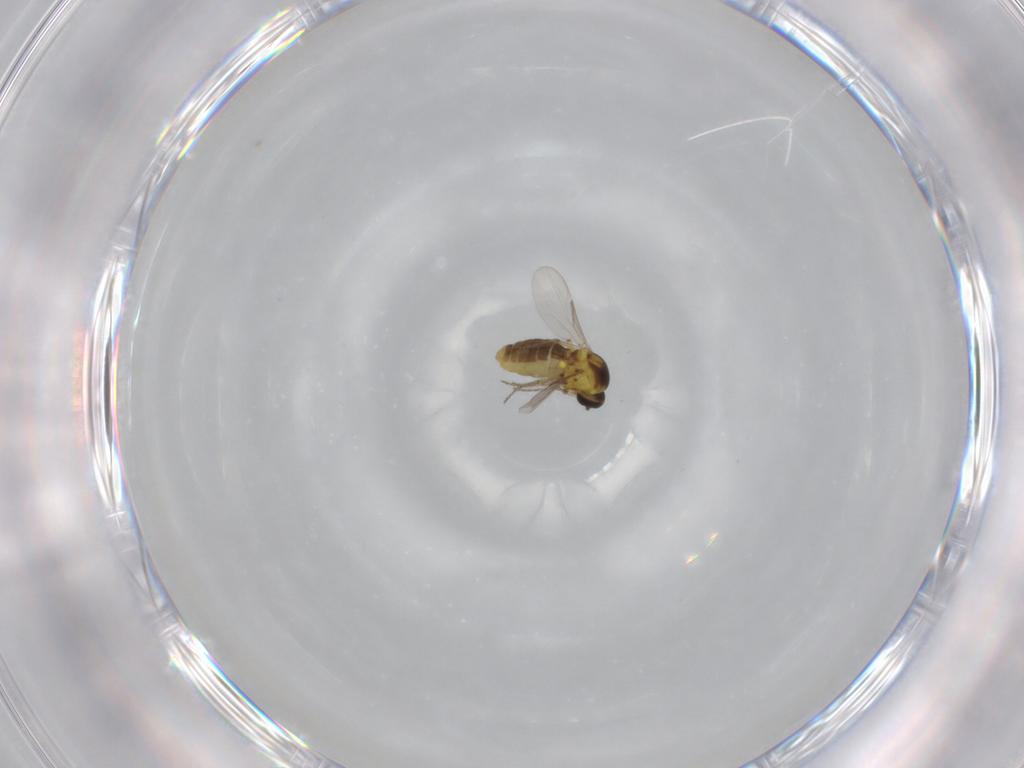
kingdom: Animalia
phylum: Arthropoda
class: Insecta
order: Diptera
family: Ceratopogonidae
